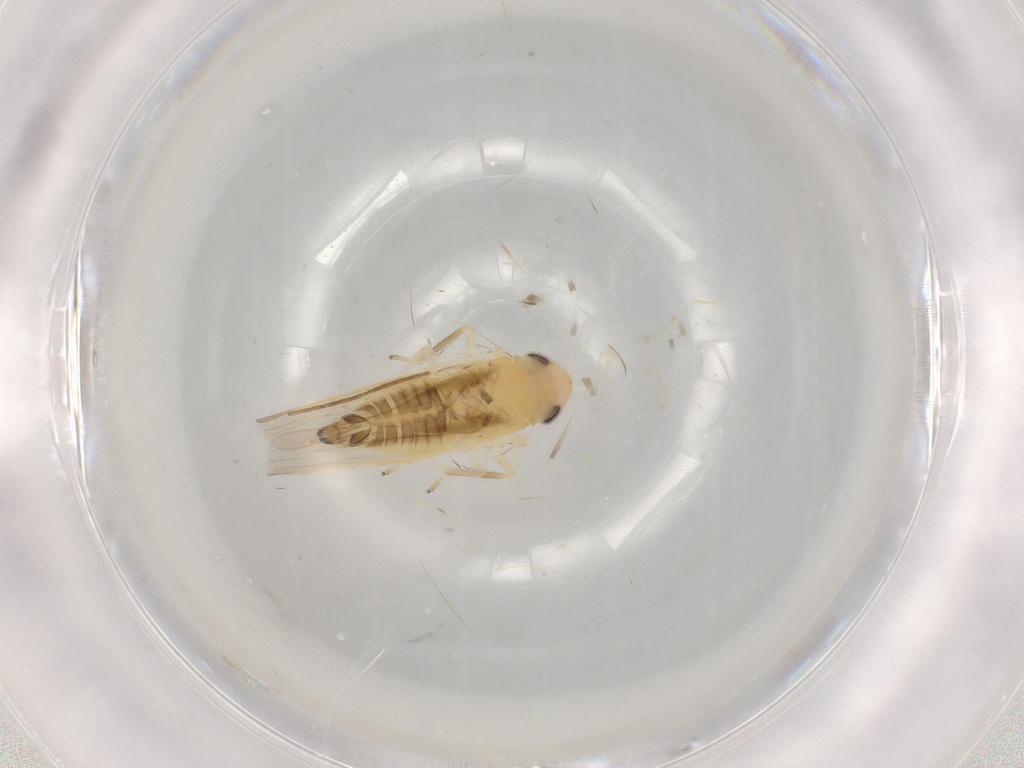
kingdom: Animalia
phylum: Arthropoda
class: Insecta
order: Hemiptera
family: Cicadellidae
